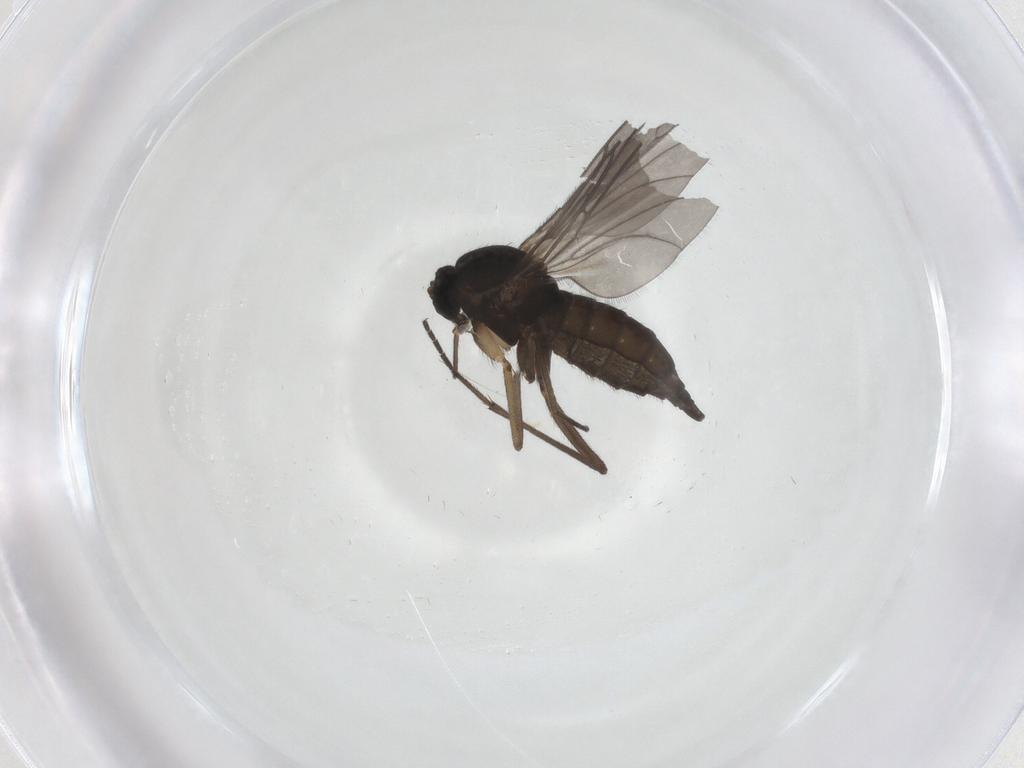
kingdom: Animalia
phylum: Arthropoda
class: Insecta
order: Diptera
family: Sciaridae
